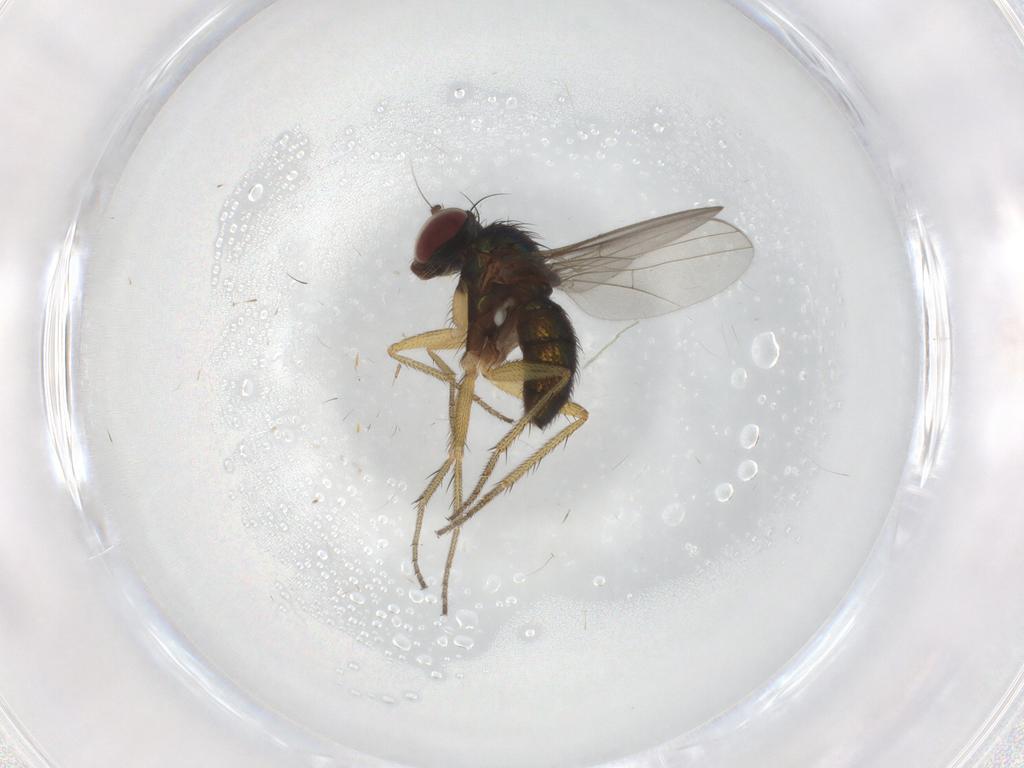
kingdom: Animalia
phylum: Arthropoda
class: Insecta
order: Diptera
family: Dolichopodidae
